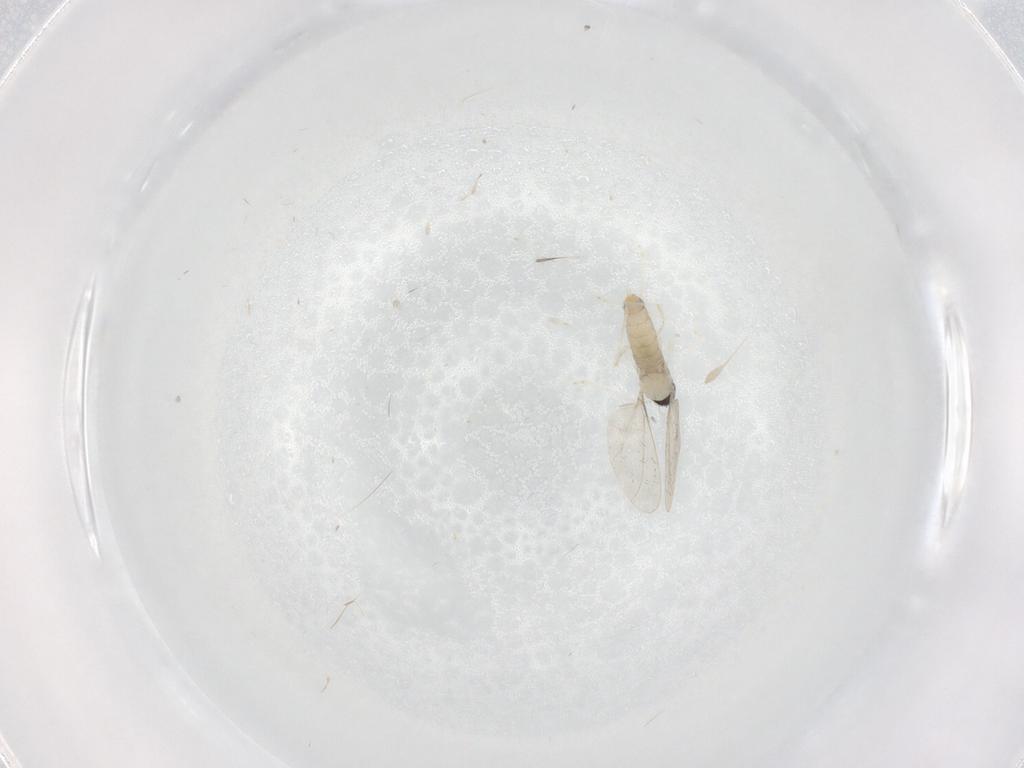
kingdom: Animalia
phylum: Arthropoda
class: Insecta
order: Diptera
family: Cecidomyiidae
